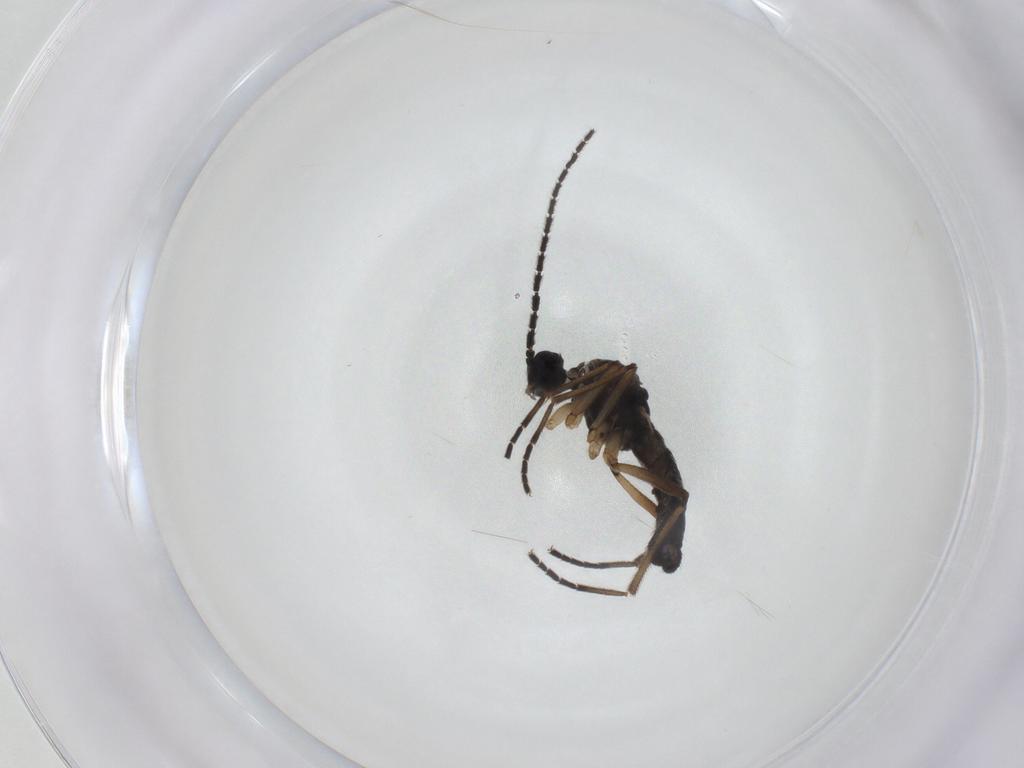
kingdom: Animalia
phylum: Arthropoda
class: Insecta
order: Diptera
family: Sciaridae
